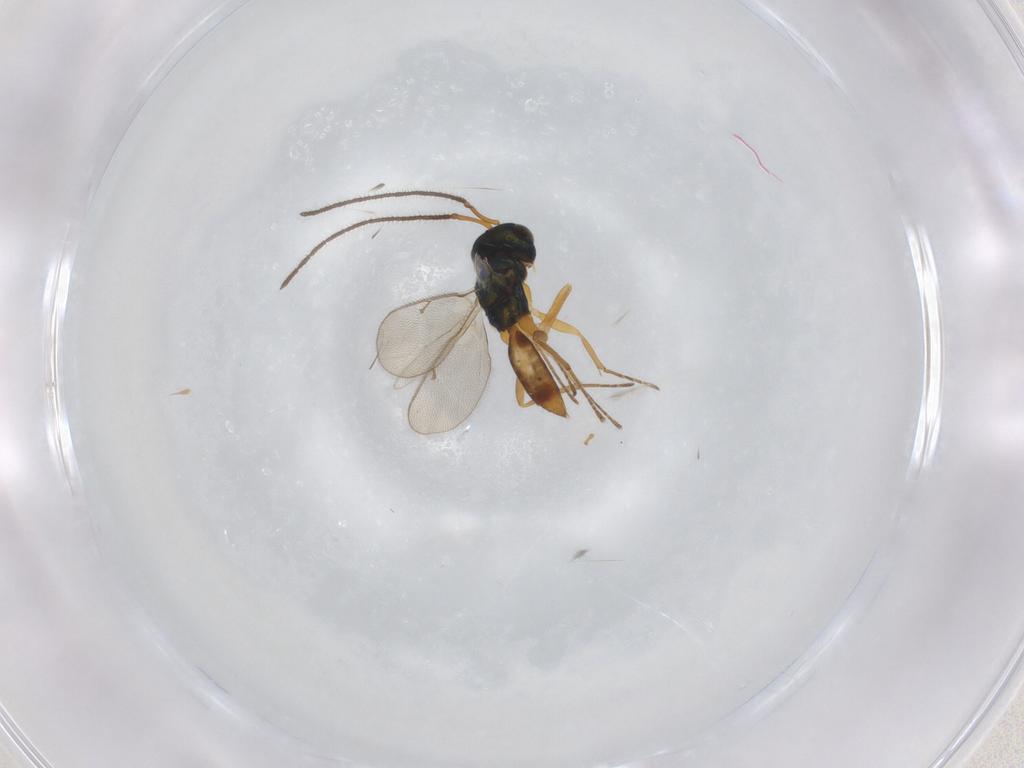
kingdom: Animalia
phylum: Arthropoda
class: Insecta
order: Hymenoptera
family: Pteromalidae
